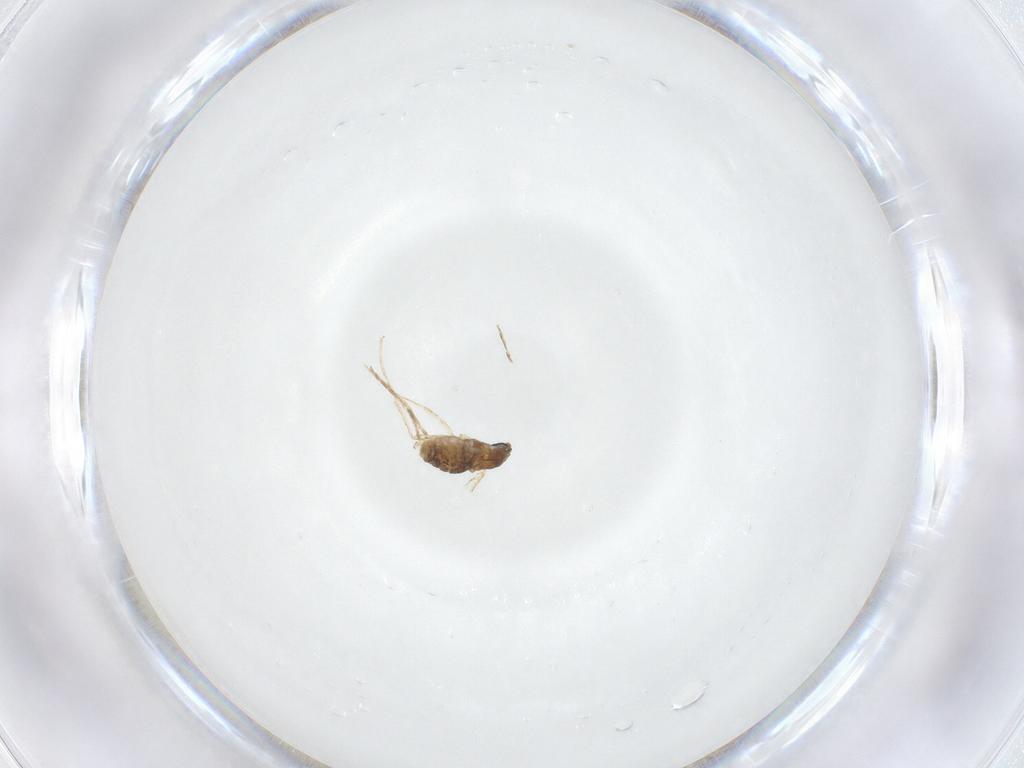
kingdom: Animalia
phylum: Arthropoda
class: Insecta
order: Diptera
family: Cecidomyiidae
